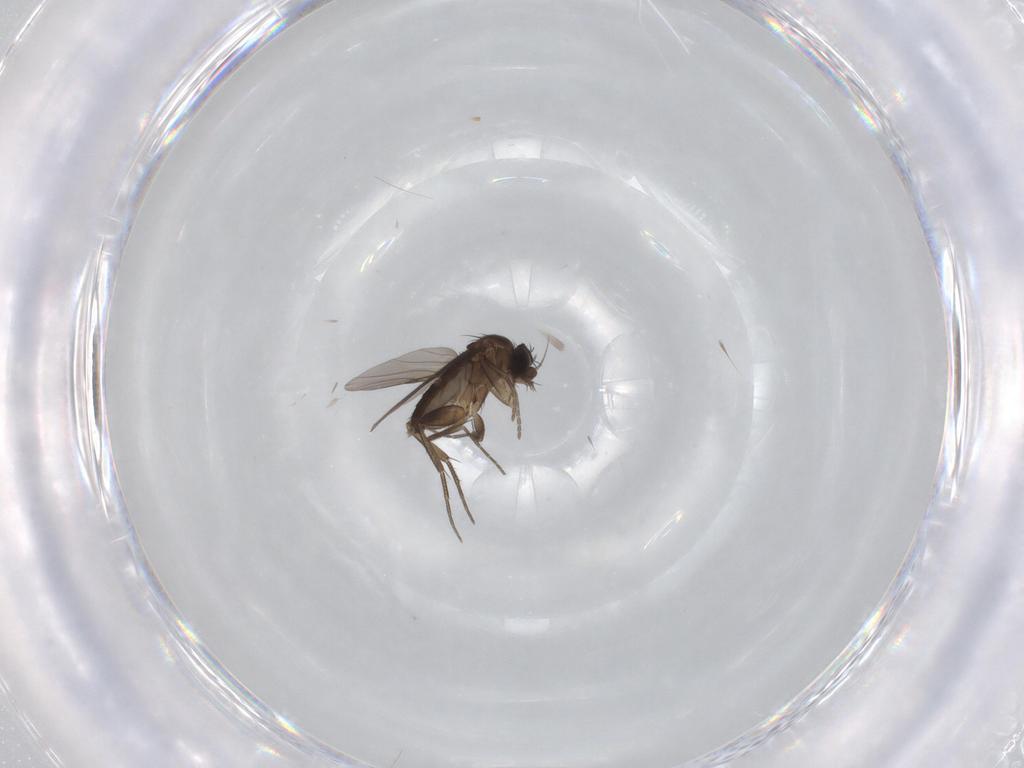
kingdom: Animalia
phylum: Arthropoda
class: Insecta
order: Diptera
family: Phoridae
